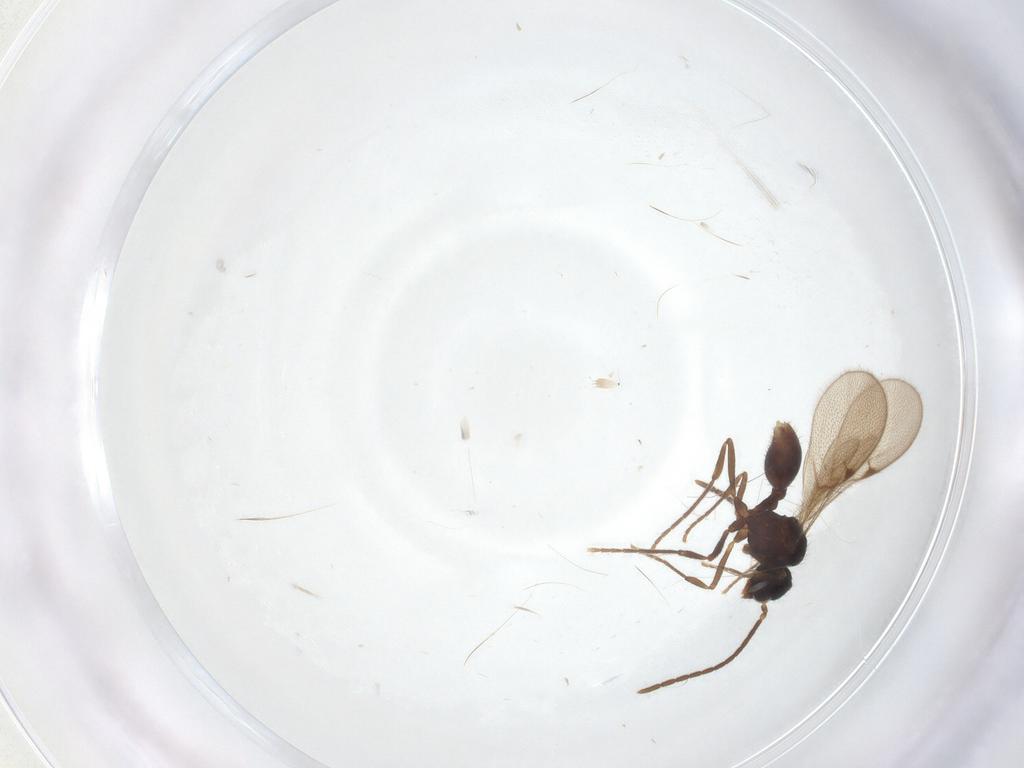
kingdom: Animalia
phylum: Arthropoda
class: Insecta
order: Hymenoptera
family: Formicidae
